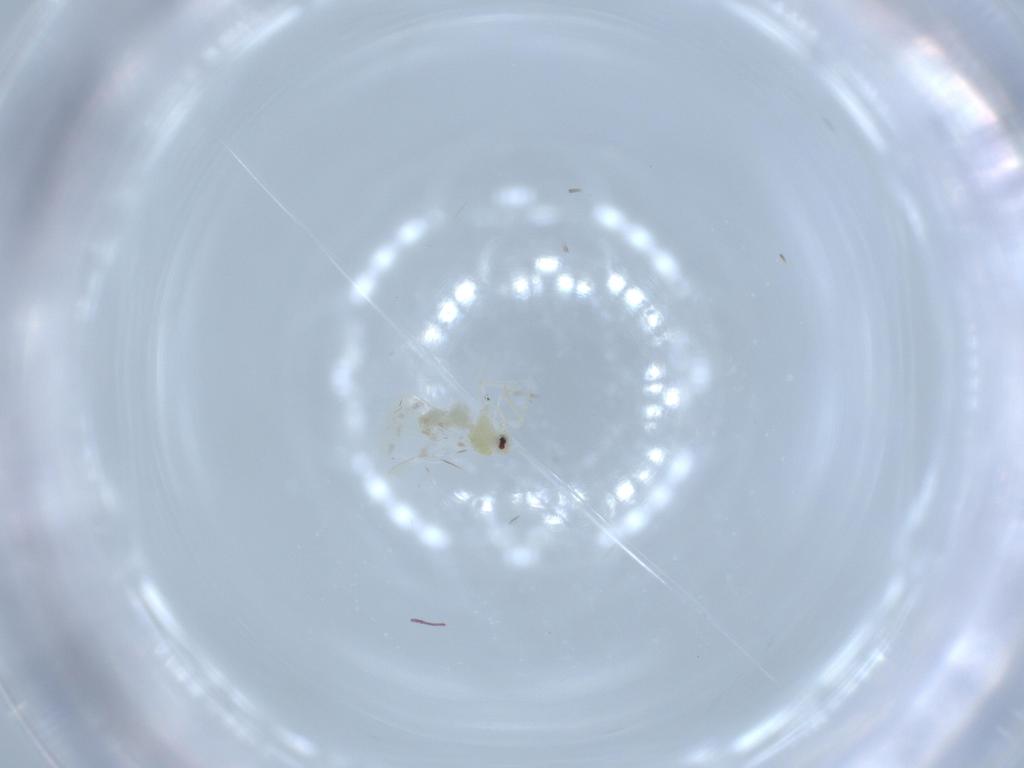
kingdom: Animalia
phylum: Arthropoda
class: Insecta
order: Hemiptera
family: Aleyrodidae
